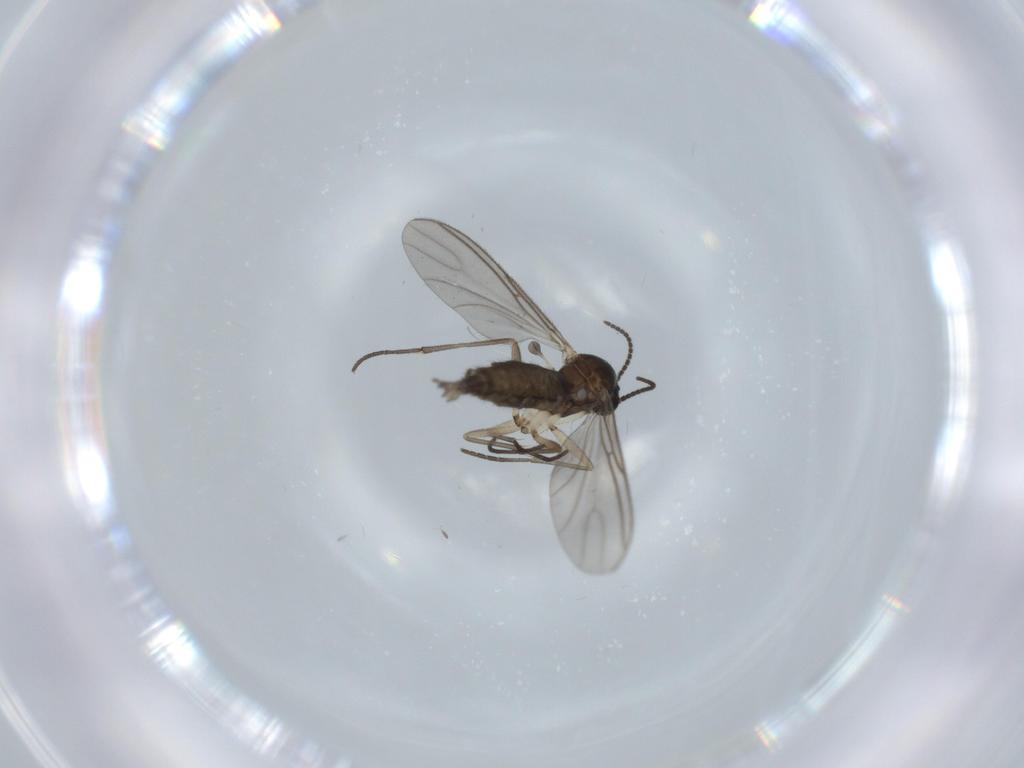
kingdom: Animalia
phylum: Arthropoda
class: Insecta
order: Diptera
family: Sciaridae
